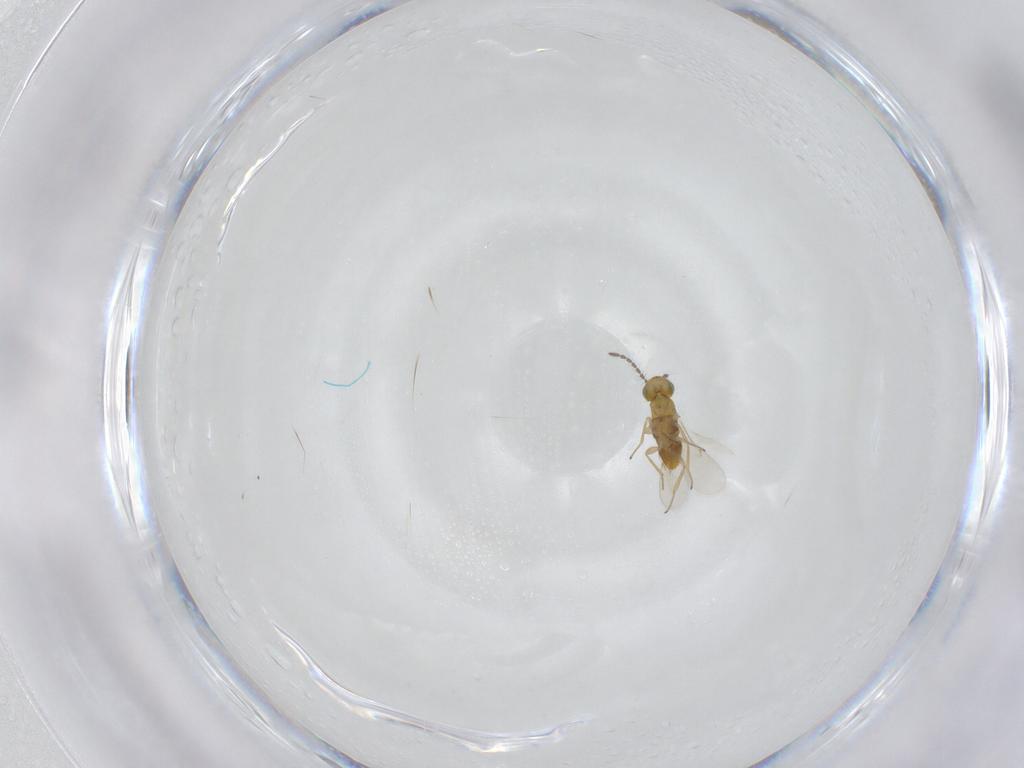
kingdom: Animalia
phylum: Arthropoda
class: Insecta
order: Hymenoptera
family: Encyrtidae
